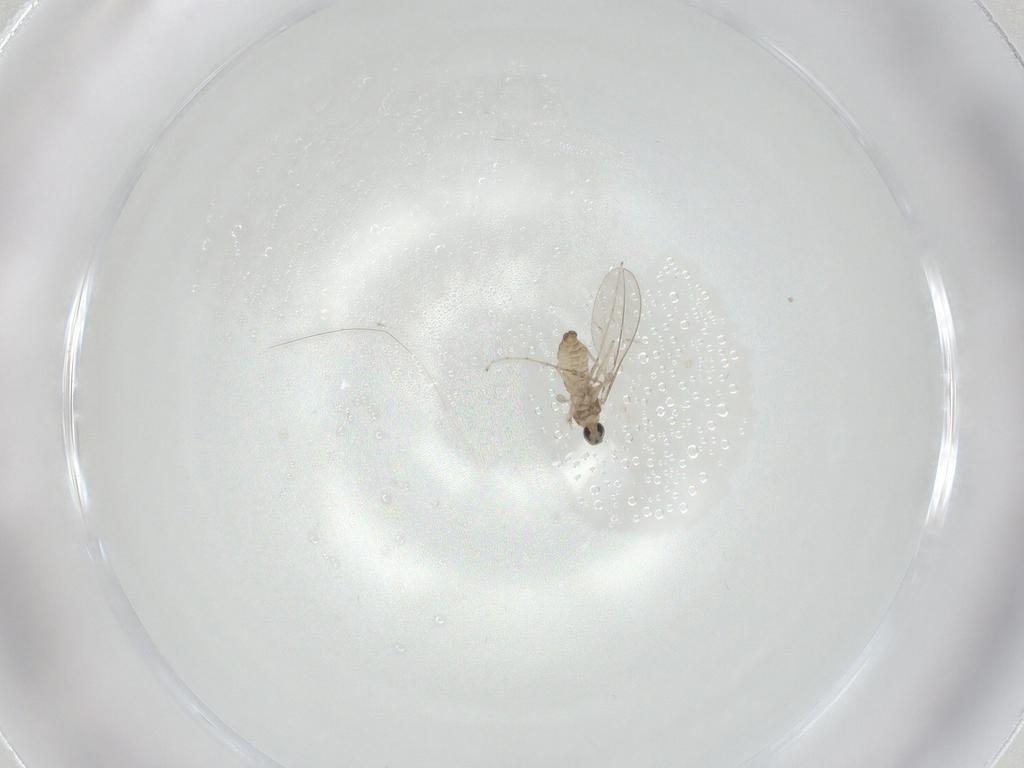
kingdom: Animalia
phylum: Arthropoda
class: Insecta
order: Diptera
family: Cecidomyiidae
